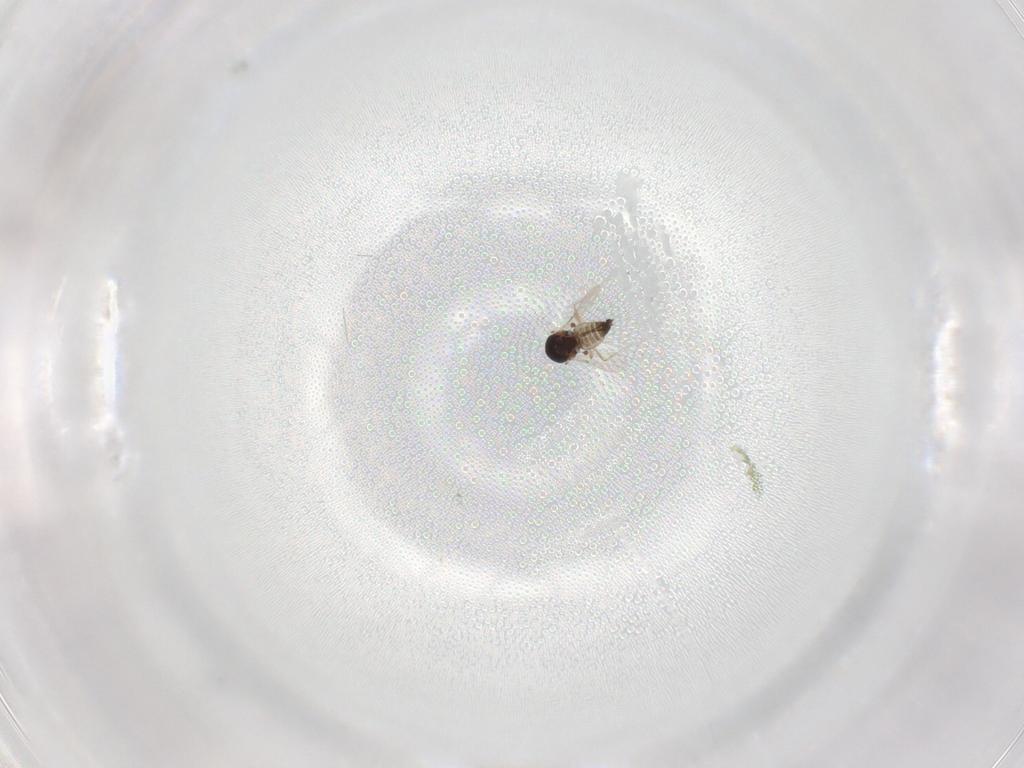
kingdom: Animalia
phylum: Arthropoda
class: Insecta
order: Diptera
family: Ceratopogonidae
